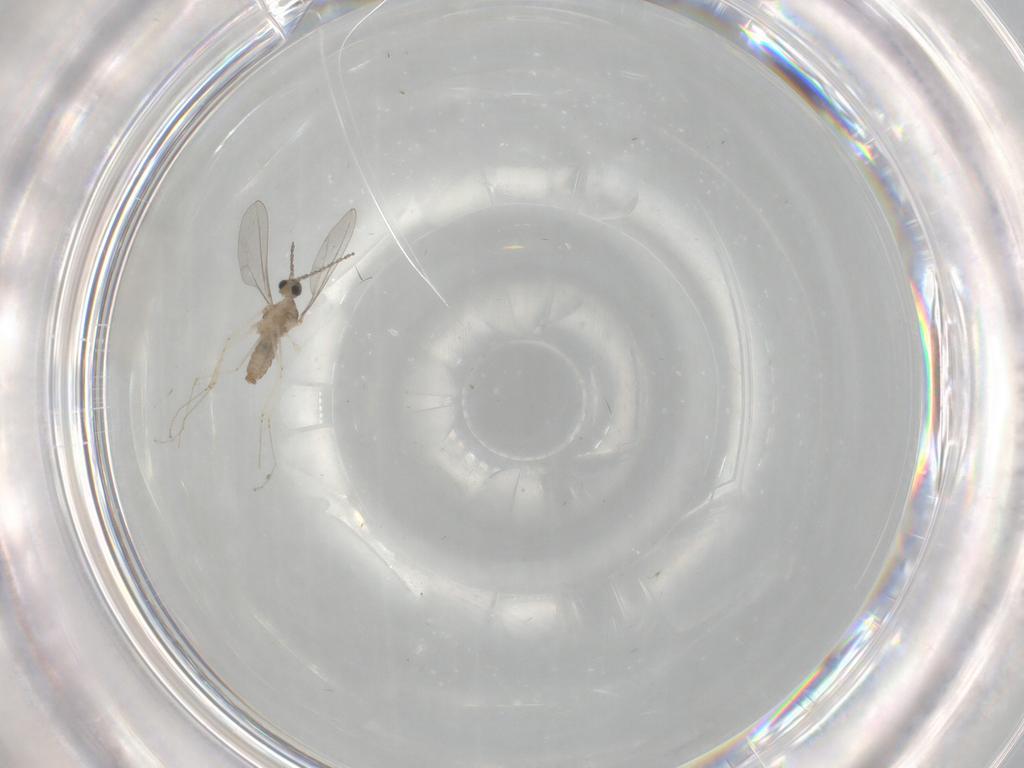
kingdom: Animalia
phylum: Arthropoda
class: Insecta
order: Diptera
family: Cecidomyiidae
